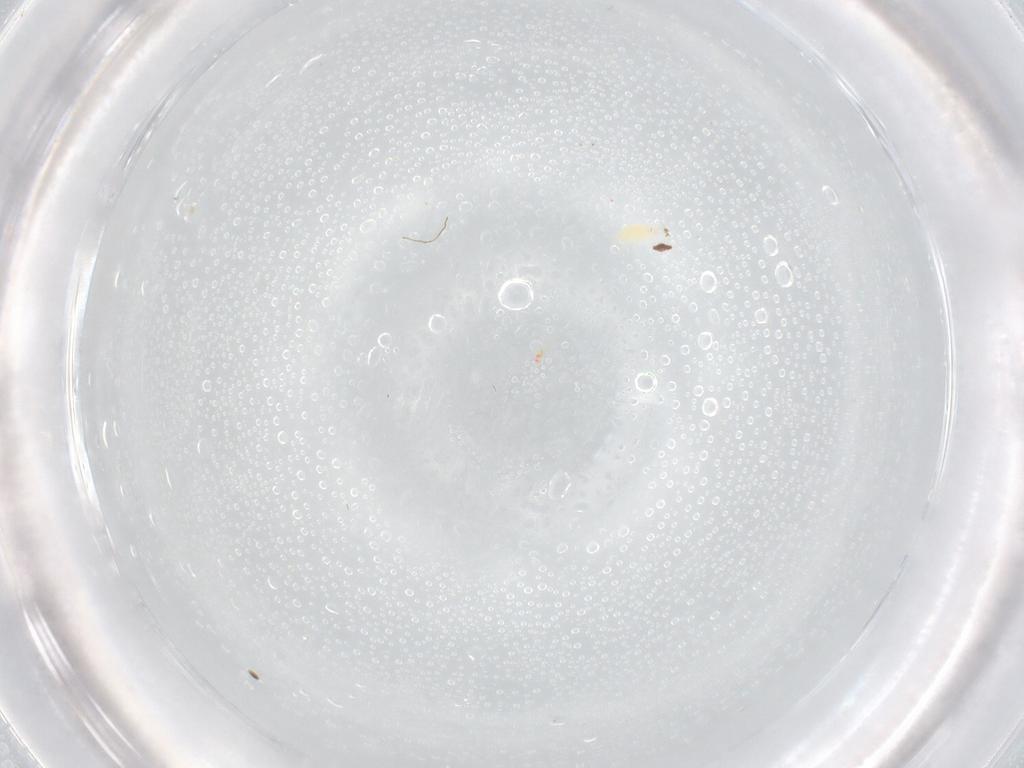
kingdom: Animalia
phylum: Arthropoda
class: Arachnida
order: Trombidiformes
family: Stigmaeidae
